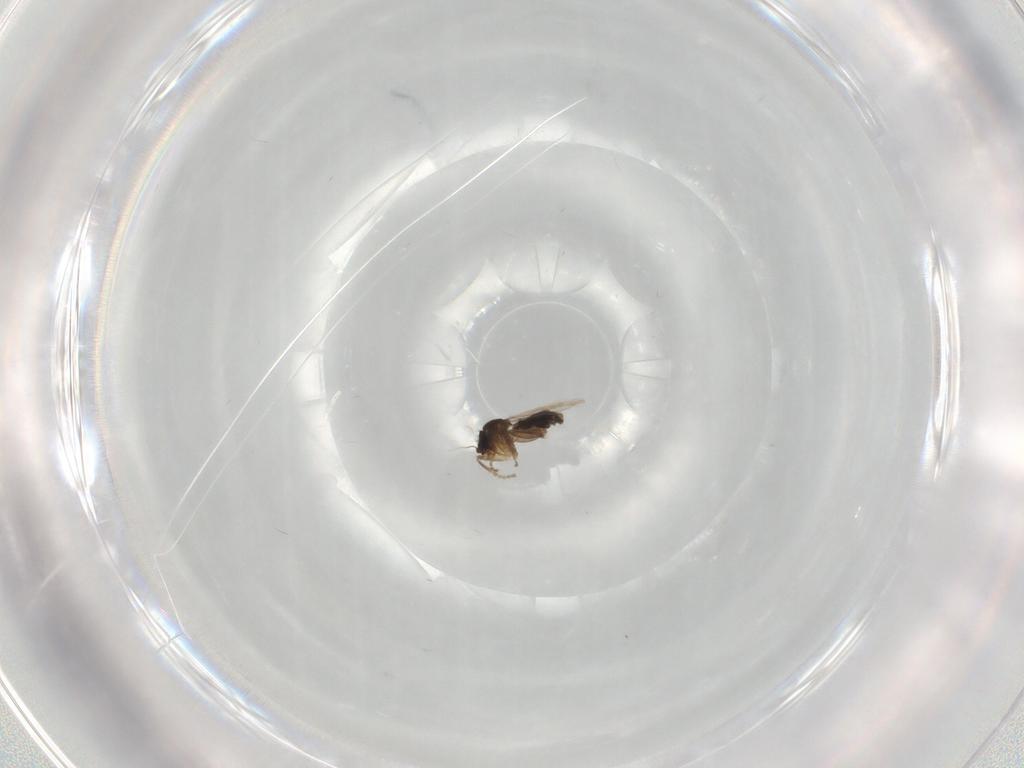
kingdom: Animalia
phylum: Arthropoda
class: Insecta
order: Diptera
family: Phoridae
